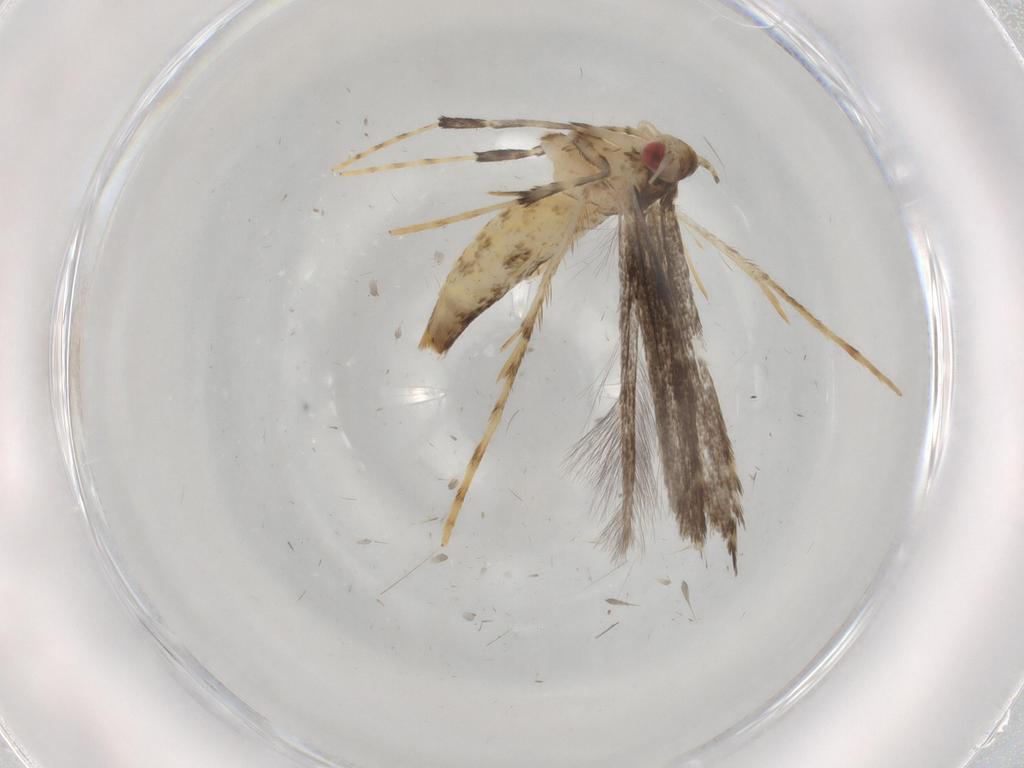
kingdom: Animalia
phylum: Arthropoda
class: Insecta
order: Lepidoptera
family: Gracillariidae
